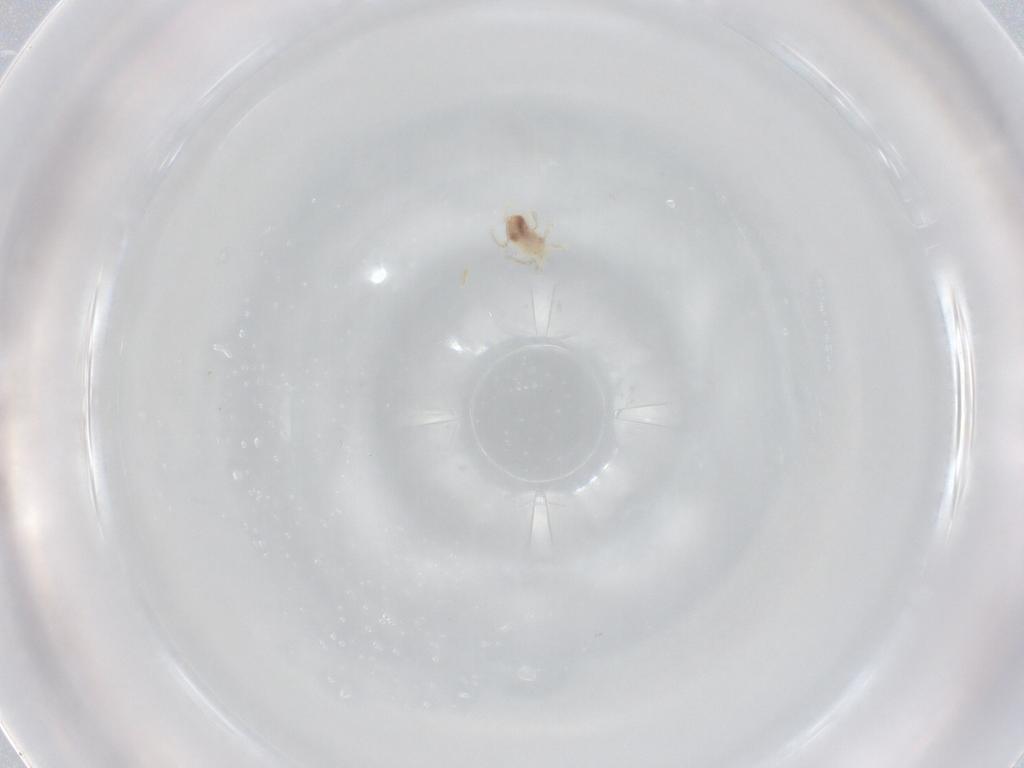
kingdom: Animalia
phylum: Arthropoda
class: Arachnida
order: Trombidiformes
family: Anystidae
